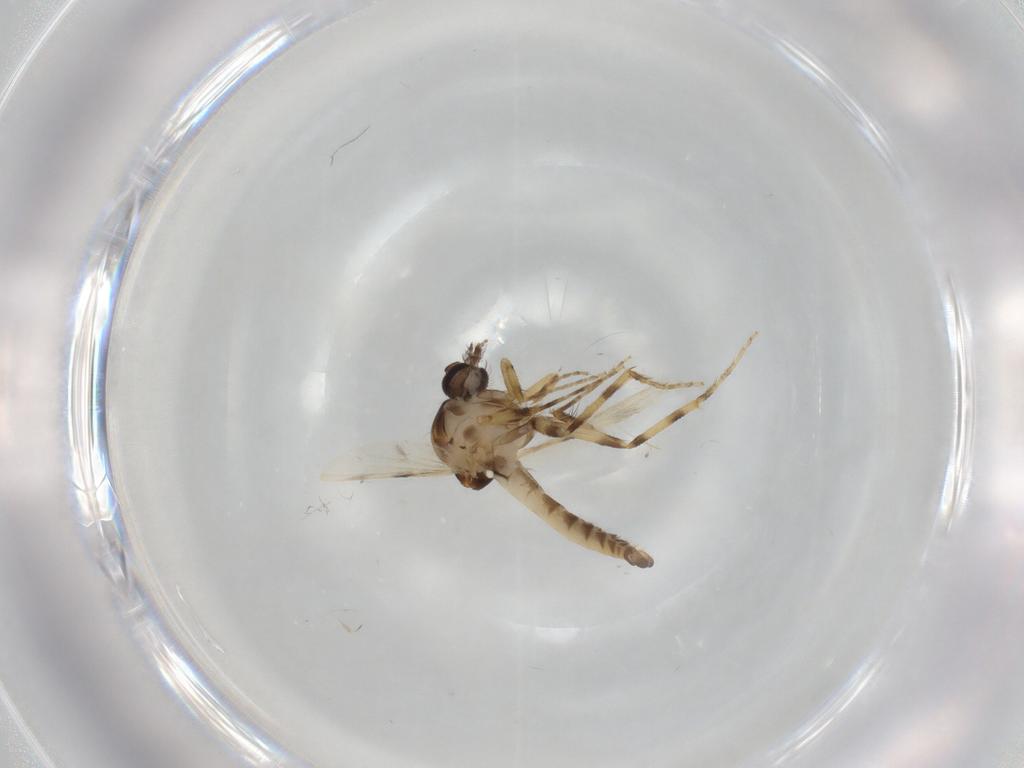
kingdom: Animalia
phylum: Arthropoda
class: Insecta
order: Diptera
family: Ceratopogonidae
